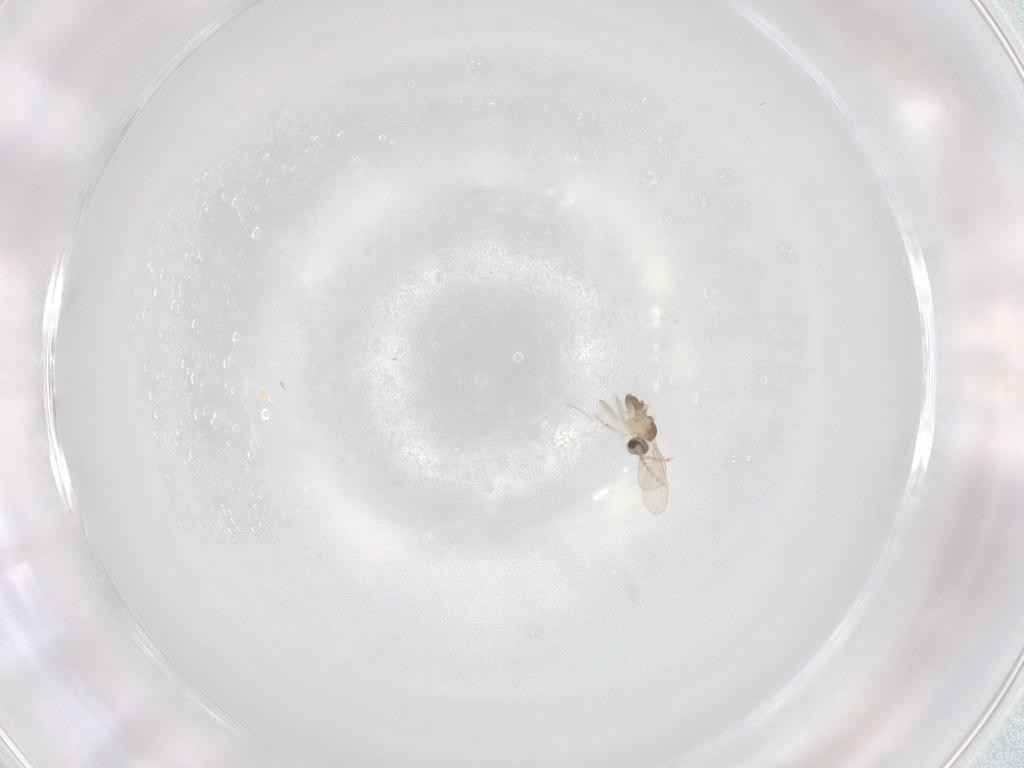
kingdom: Animalia
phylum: Arthropoda
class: Insecta
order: Diptera
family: Cecidomyiidae
